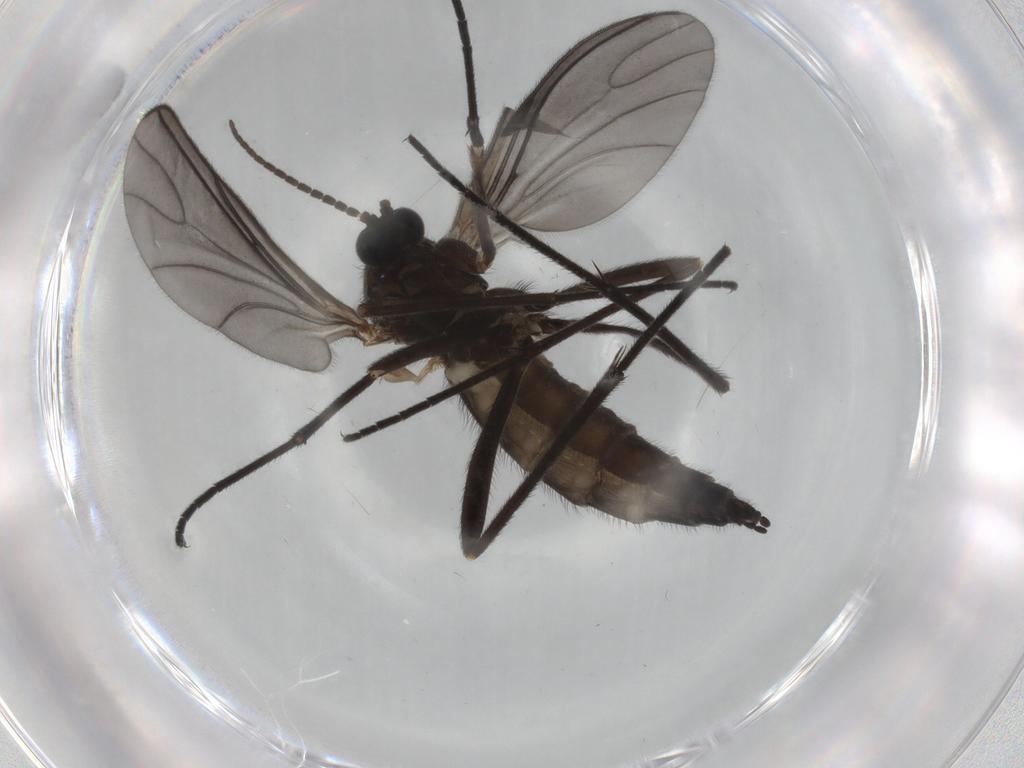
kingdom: Animalia
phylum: Arthropoda
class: Insecta
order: Diptera
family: Sciaridae
